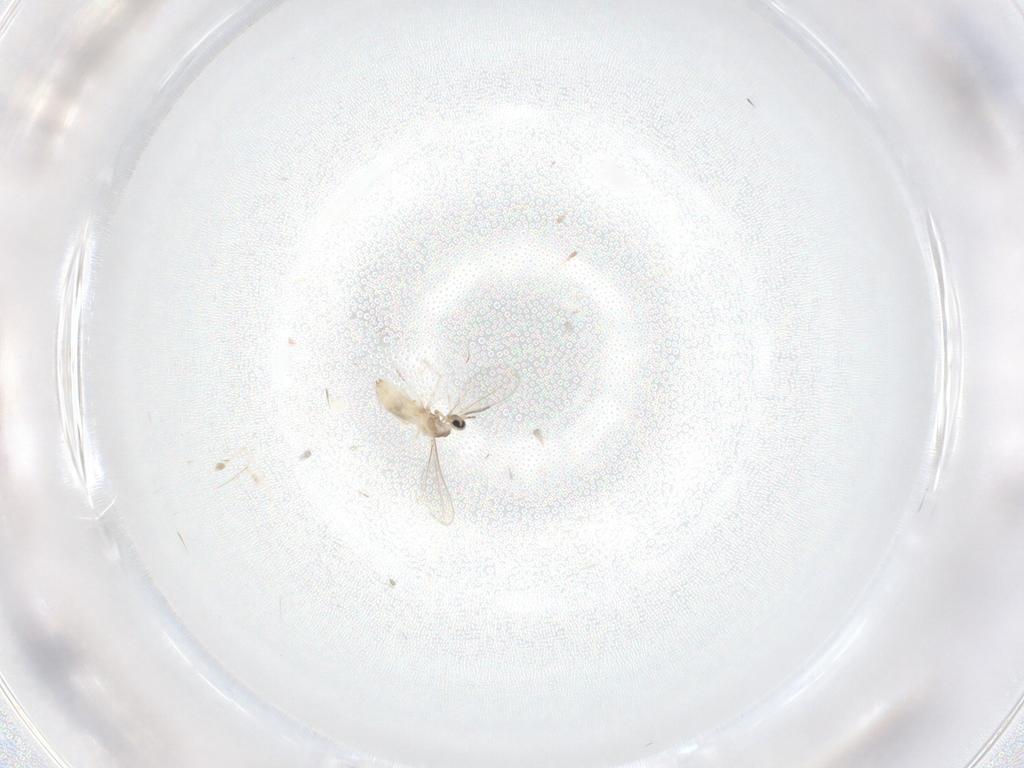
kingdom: Animalia
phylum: Arthropoda
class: Insecta
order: Diptera
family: Cecidomyiidae
